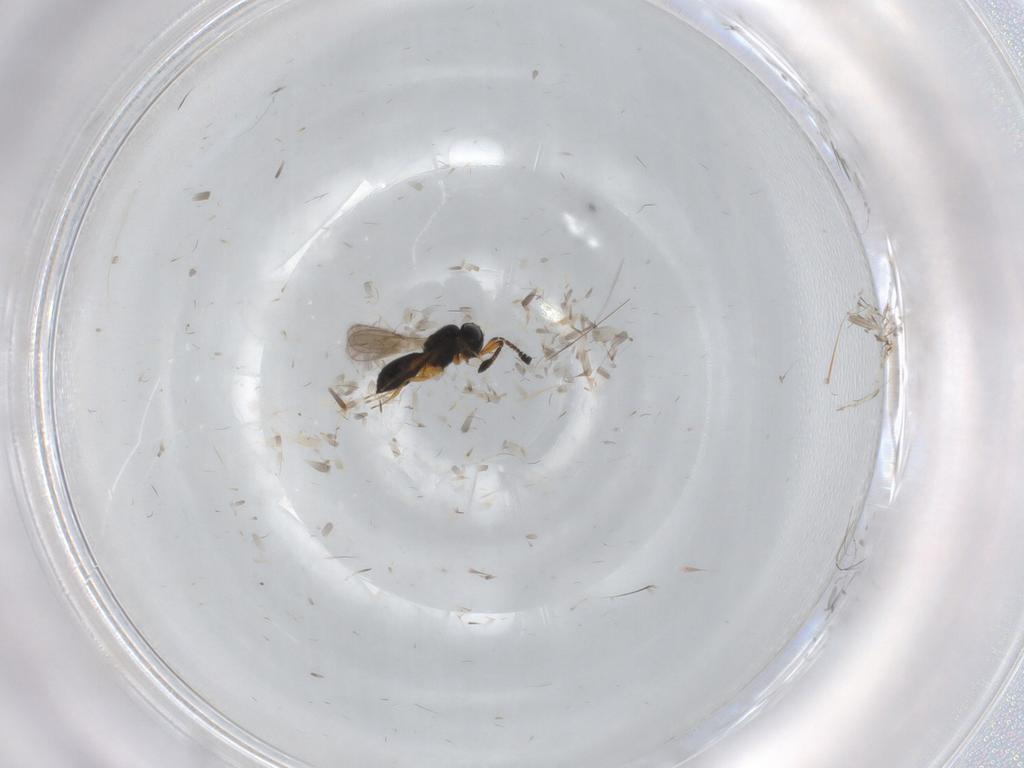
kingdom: Animalia
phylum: Arthropoda
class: Insecta
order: Hymenoptera
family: Scelionidae
